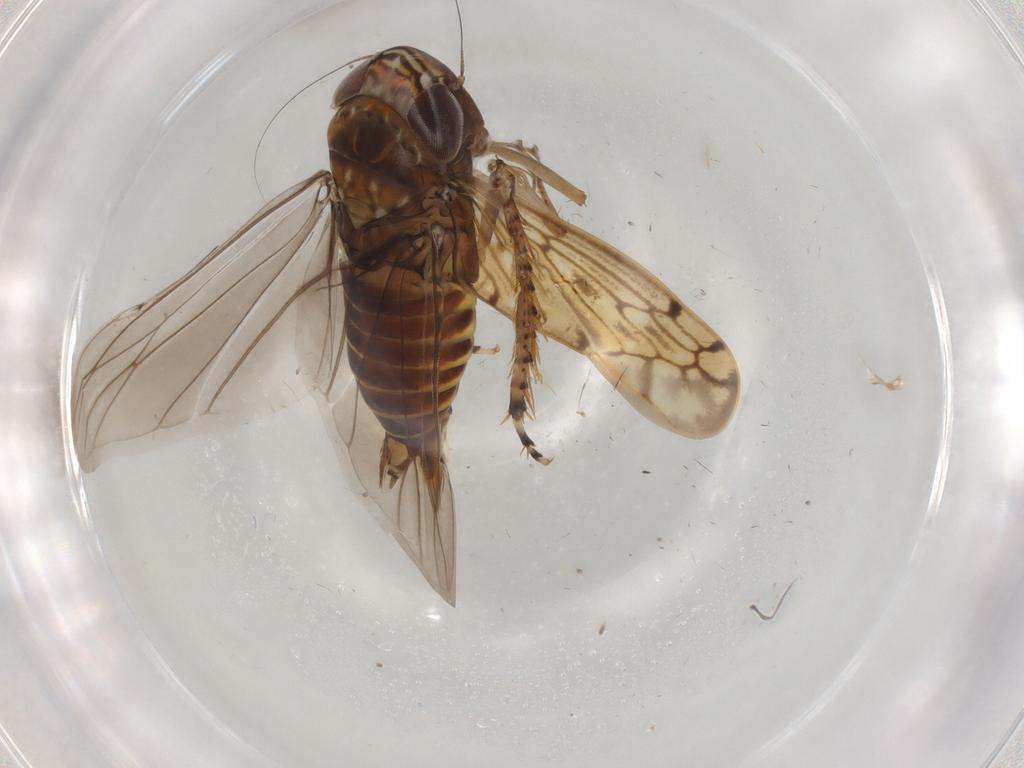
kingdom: Animalia
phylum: Arthropoda
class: Insecta
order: Hemiptera
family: Cicadellidae
